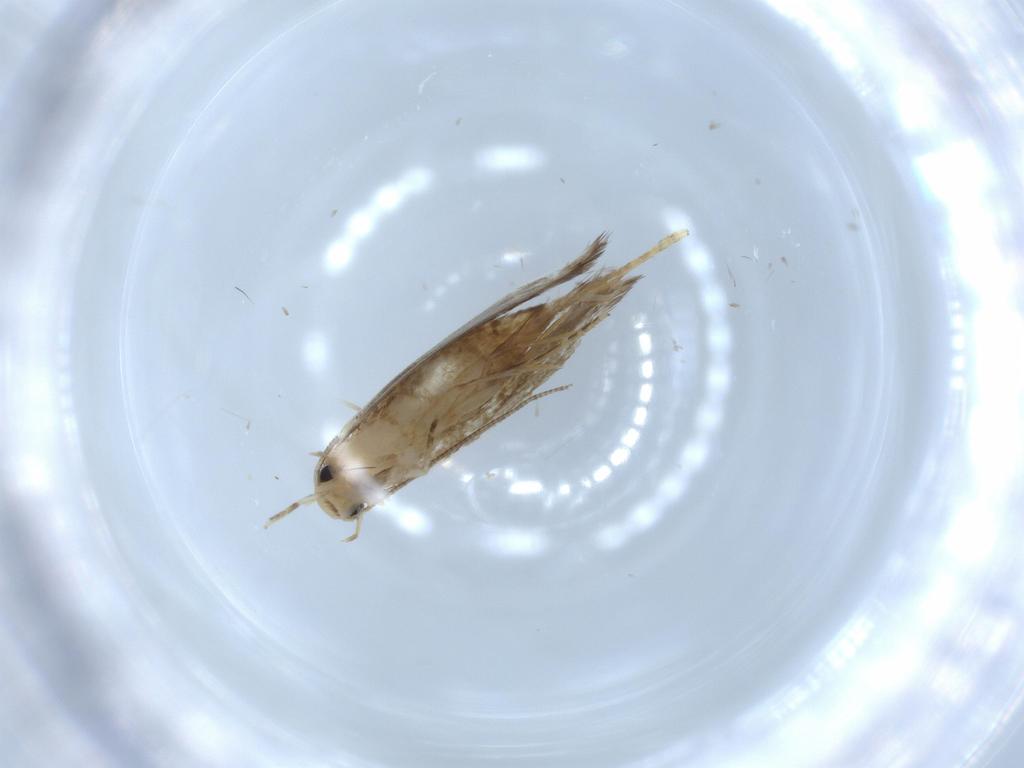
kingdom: Animalia
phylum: Arthropoda
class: Insecta
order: Lepidoptera
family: Tineidae
